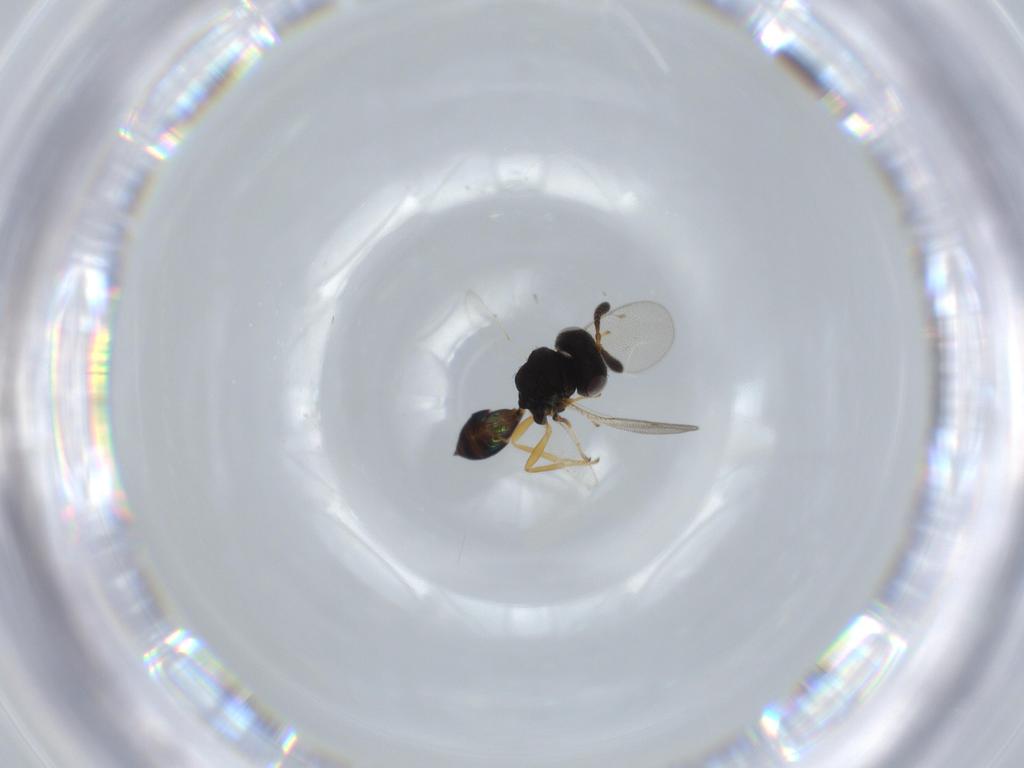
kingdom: Animalia
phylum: Arthropoda
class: Insecta
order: Hymenoptera
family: Pteromalidae
